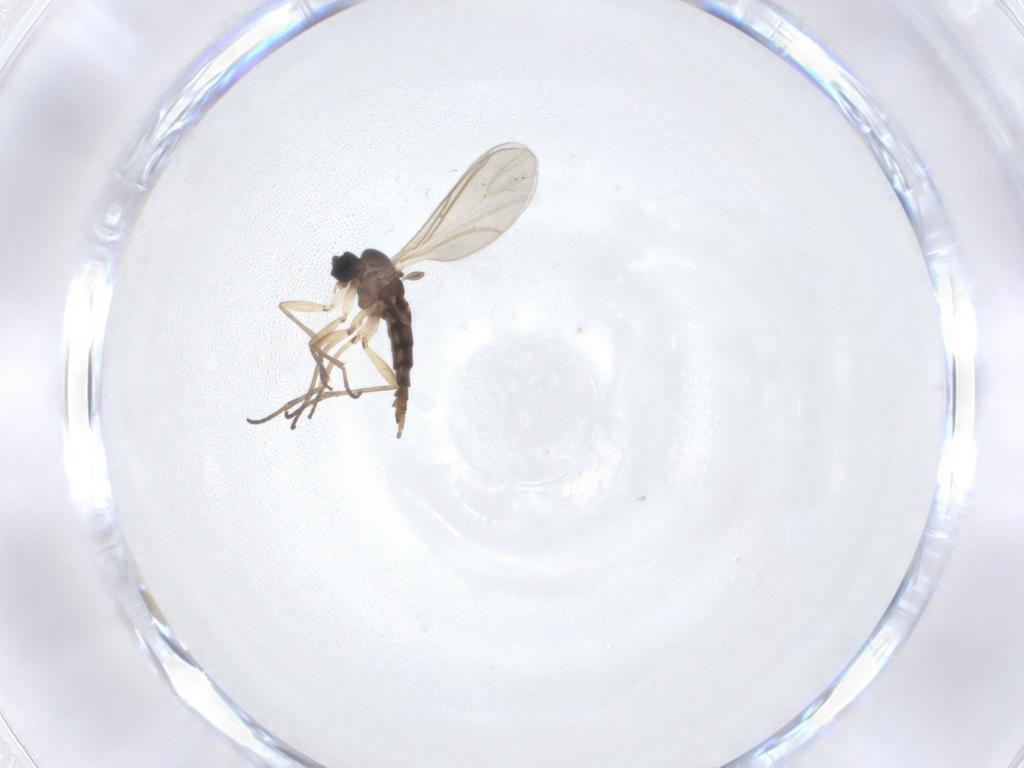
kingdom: Animalia
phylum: Arthropoda
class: Insecta
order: Diptera
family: Sciaridae
